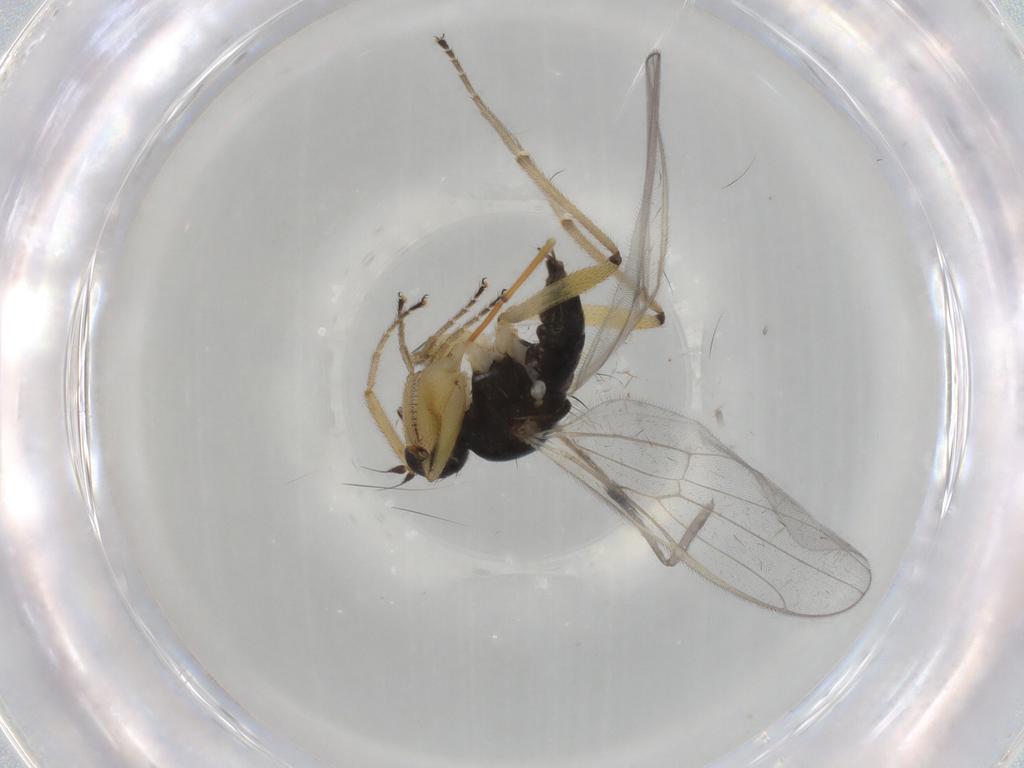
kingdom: Animalia
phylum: Arthropoda
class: Insecta
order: Diptera
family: Hybotidae
